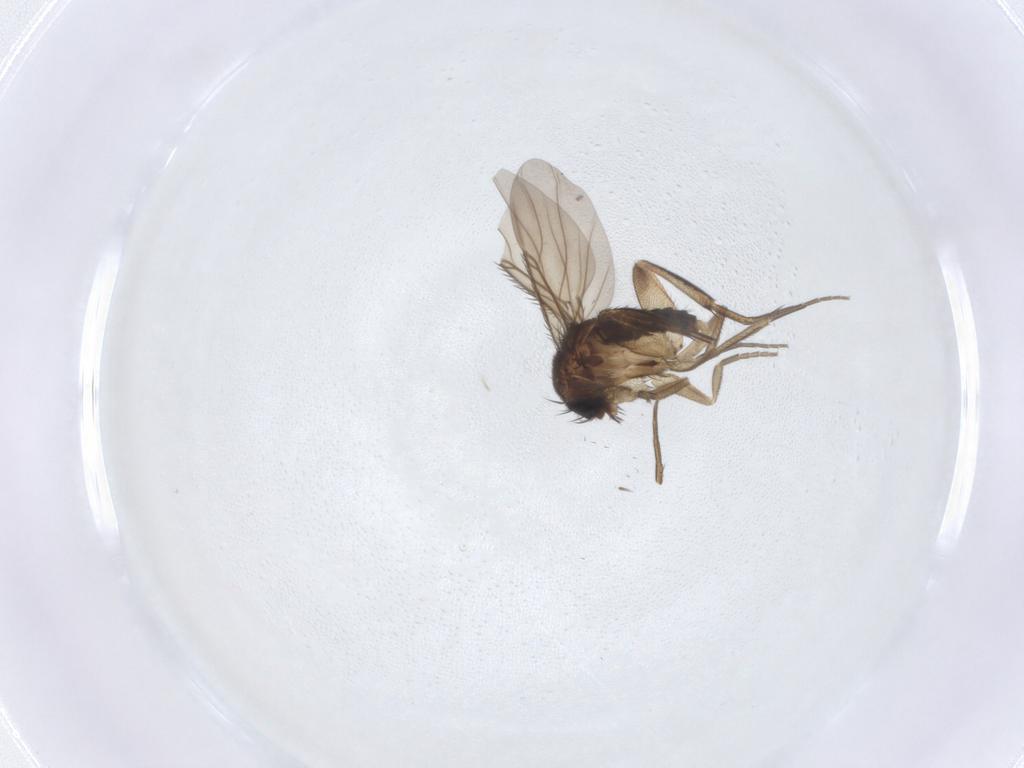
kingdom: Animalia
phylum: Arthropoda
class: Insecta
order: Diptera
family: Phoridae
